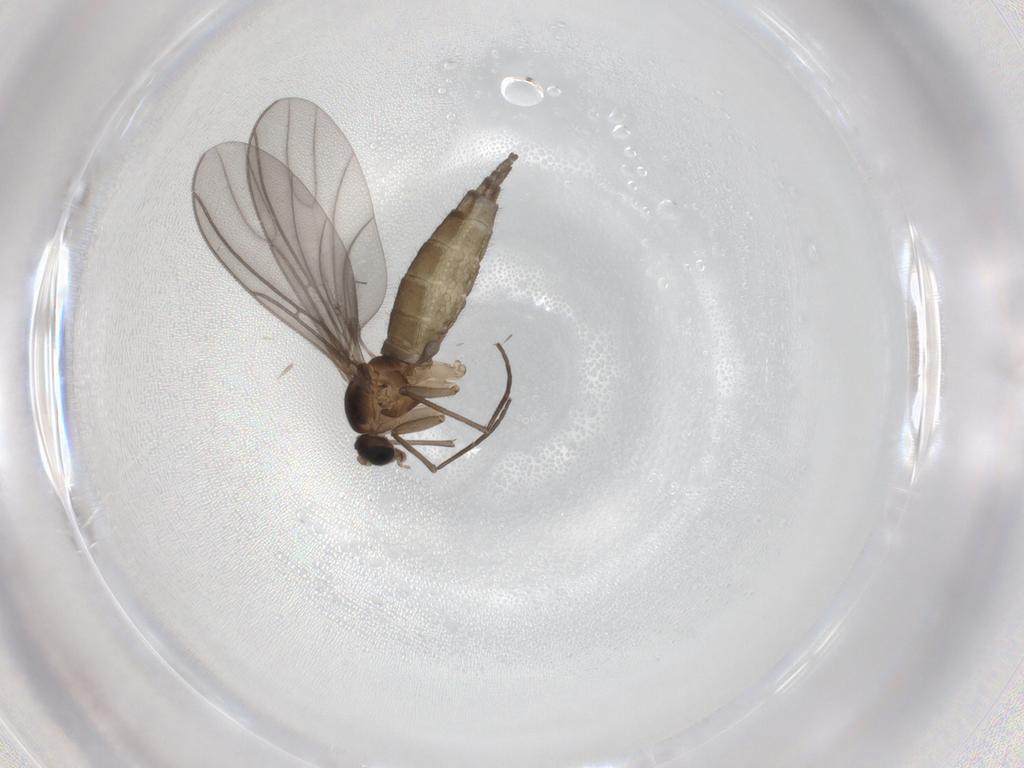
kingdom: Animalia
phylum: Arthropoda
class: Insecta
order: Diptera
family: Sciaridae
